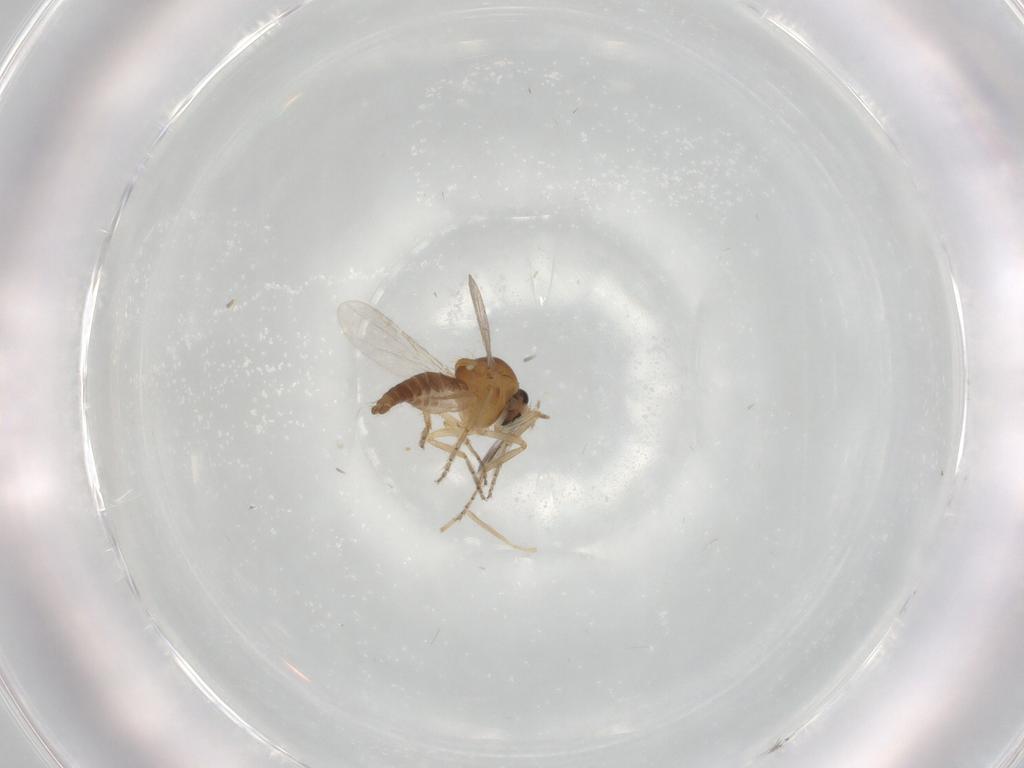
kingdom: Animalia
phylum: Arthropoda
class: Insecta
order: Diptera
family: Ceratopogonidae
